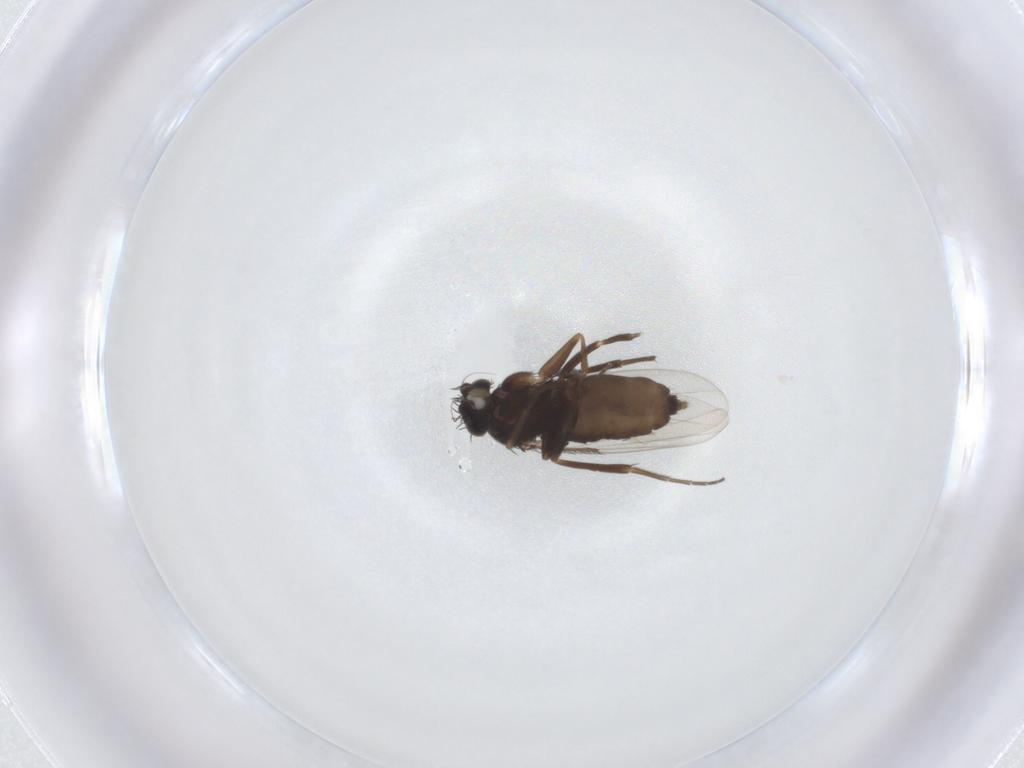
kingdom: Animalia
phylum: Arthropoda
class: Insecta
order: Diptera
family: Phoridae
